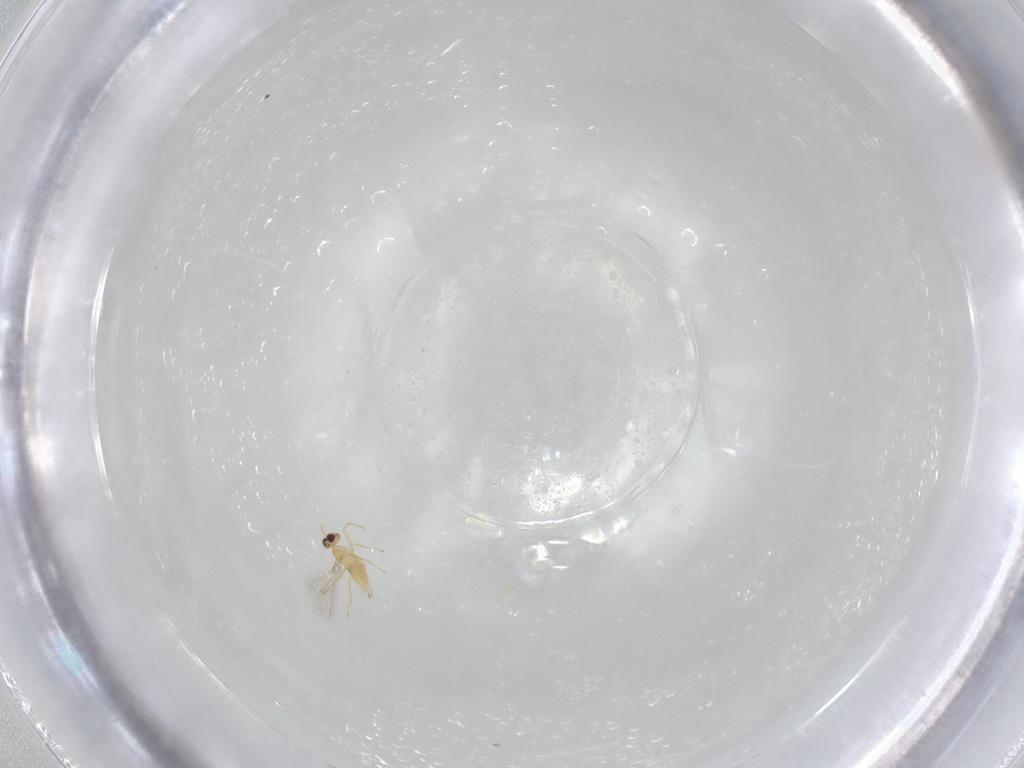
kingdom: Animalia
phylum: Arthropoda
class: Insecta
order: Hymenoptera
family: Mymaridae
